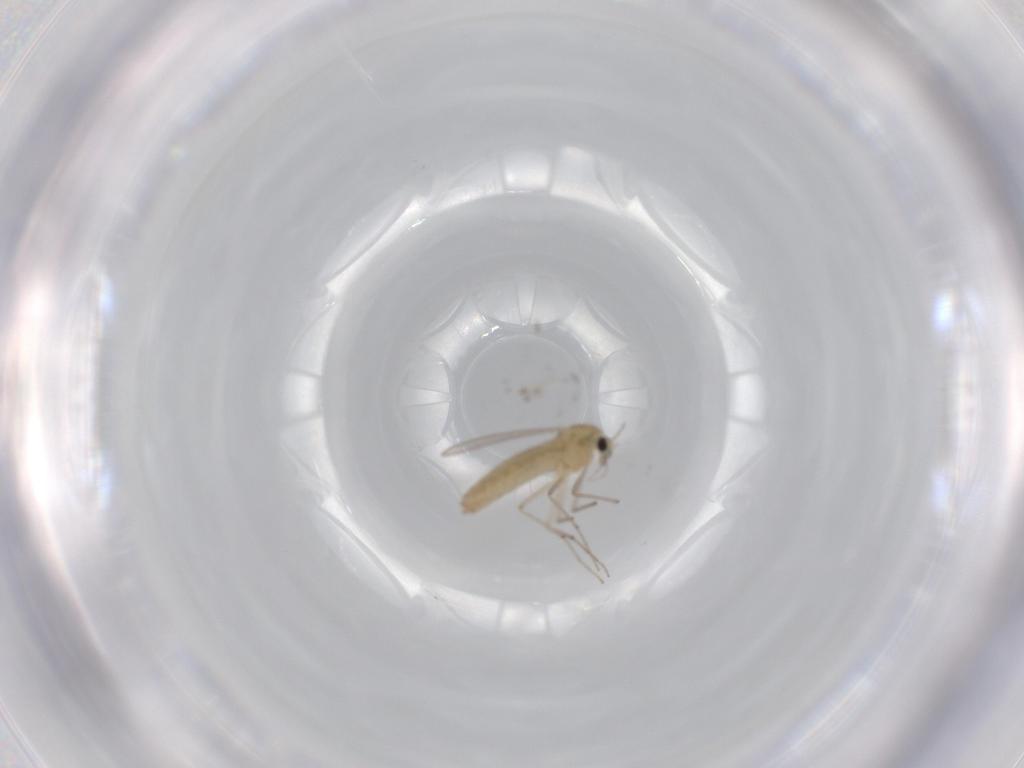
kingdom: Animalia
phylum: Arthropoda
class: Insecta
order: Diptera
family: Chironomidae
